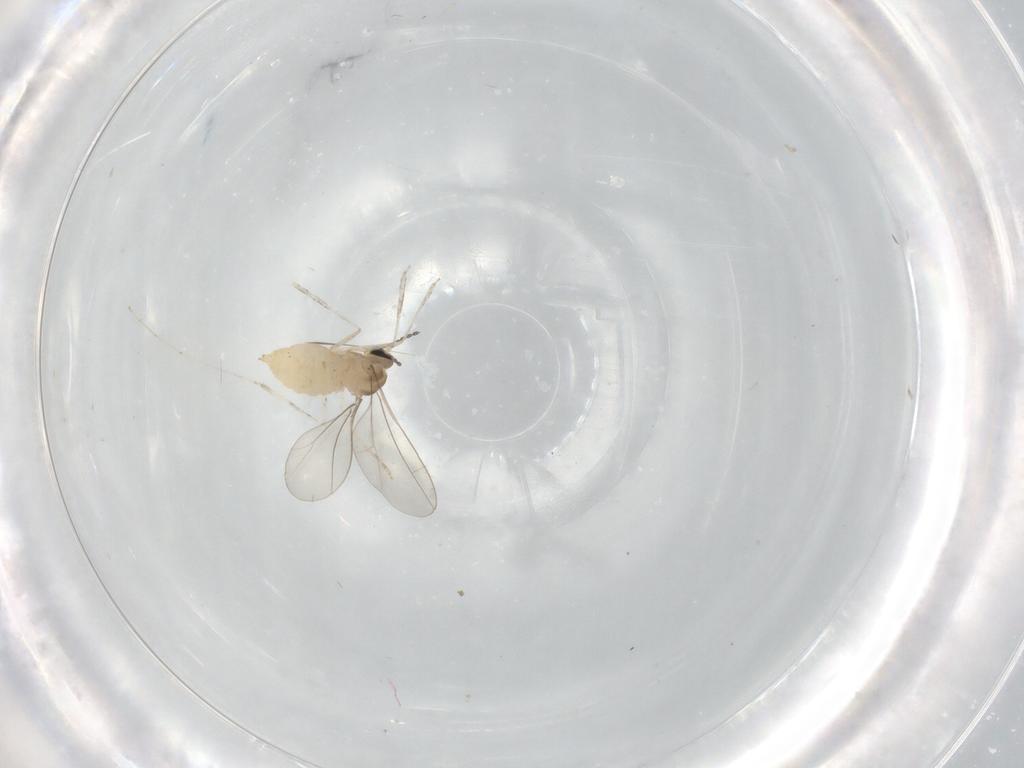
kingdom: Animalia
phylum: Arthropoda
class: Insecta
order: Diptera
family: Cecidomyiidae
